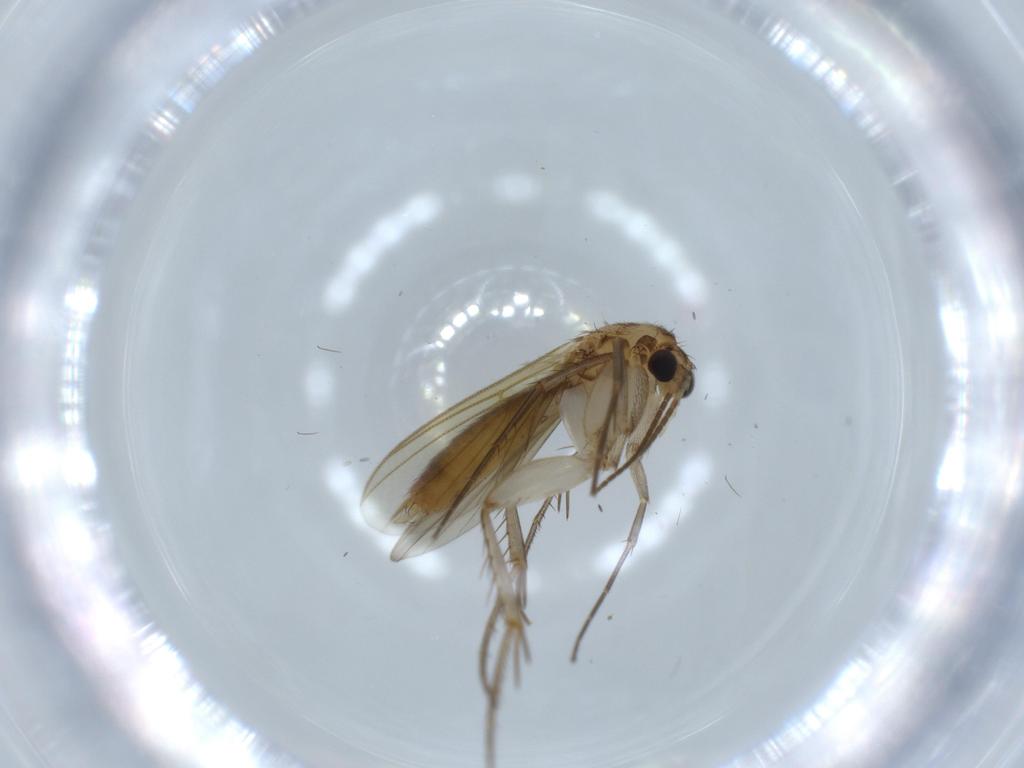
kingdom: Animalia
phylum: Arthropoda
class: Insecta
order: Diptera
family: Mycetophilidae
